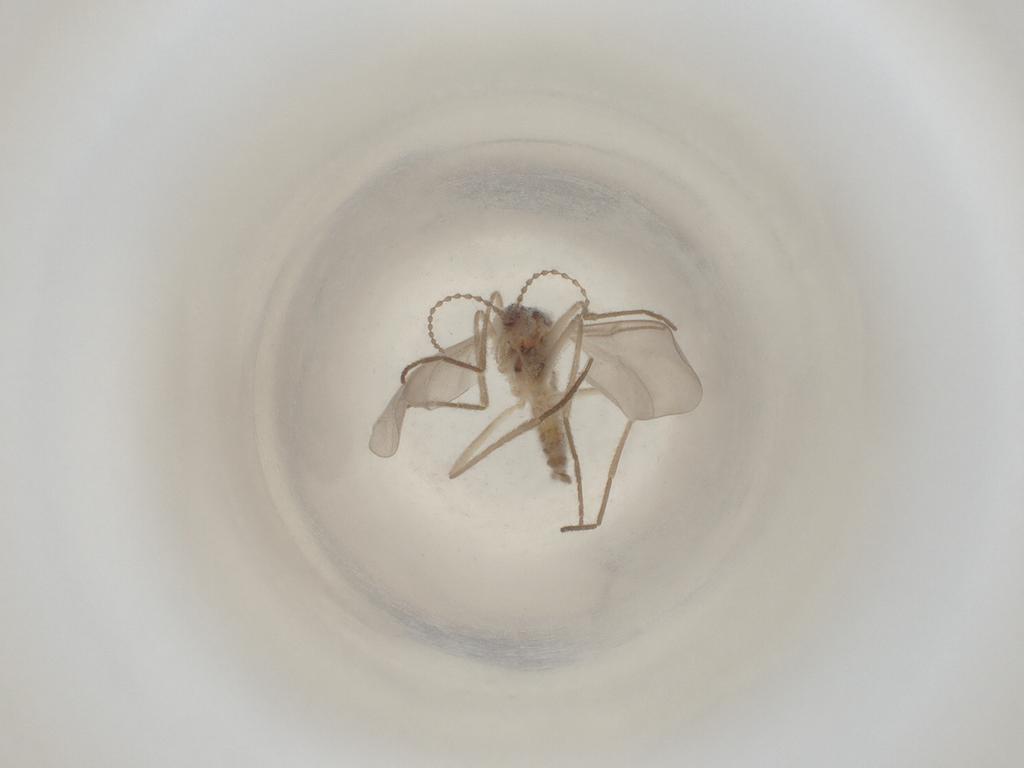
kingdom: Animalia
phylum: Arthropoda
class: Insecta
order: Diptera
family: Cecidomyiidae
